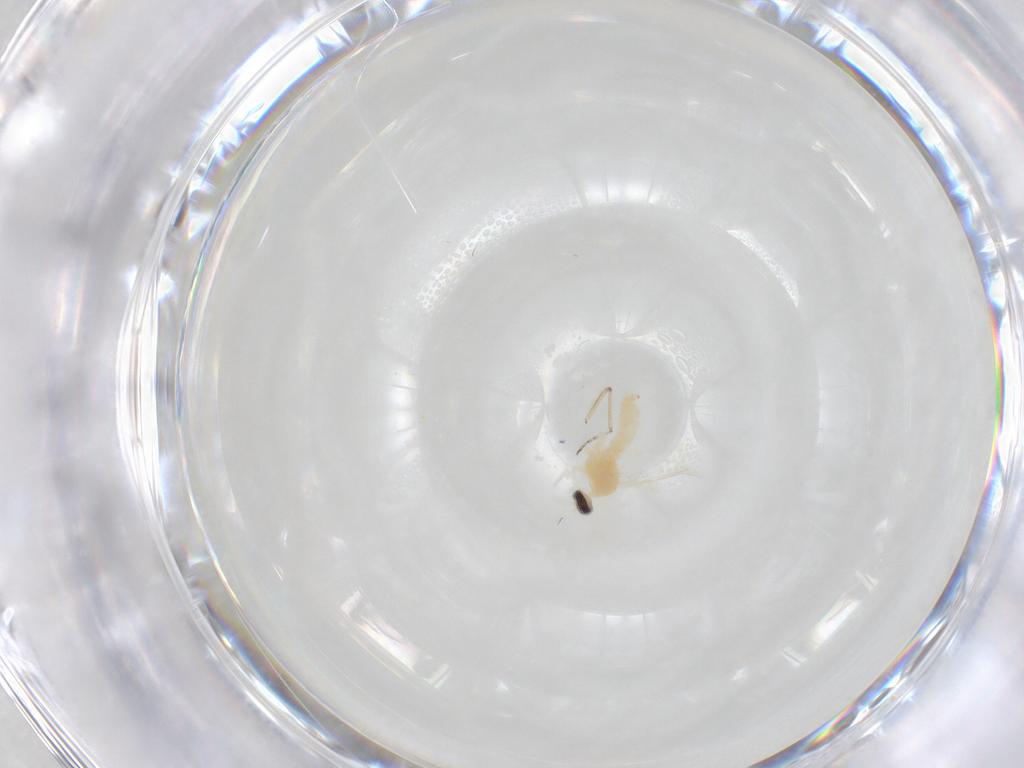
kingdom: Animalia
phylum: Arthropoda
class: Insecta
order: Diptera
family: Cecidomyiidae
